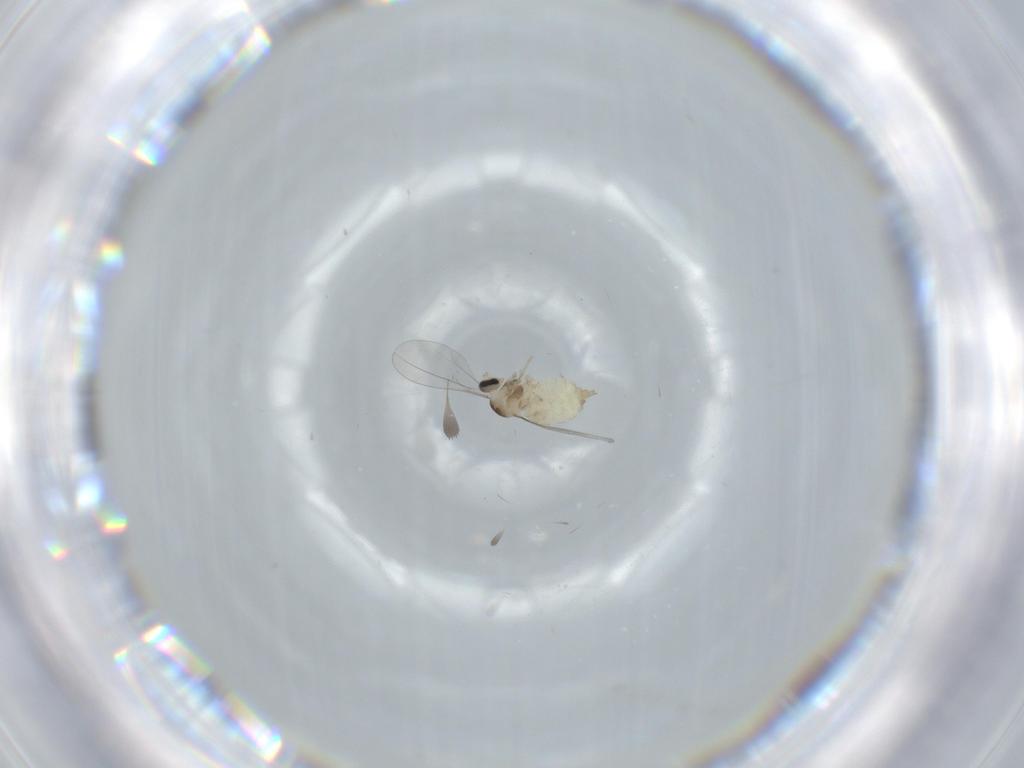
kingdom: Animalia
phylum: Arthropoda
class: Insecta
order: Diptera
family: Cecidomyiidae
